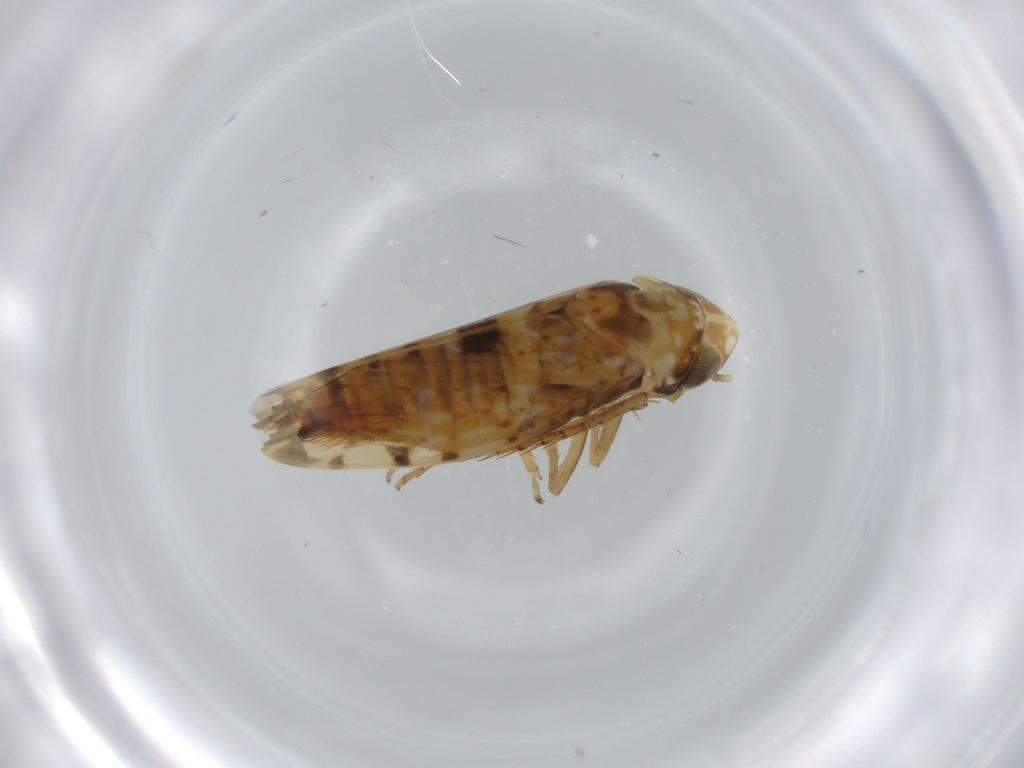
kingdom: Animalia
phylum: Arthropoda
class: Insecta
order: Hemiptera
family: Cicadellidae
